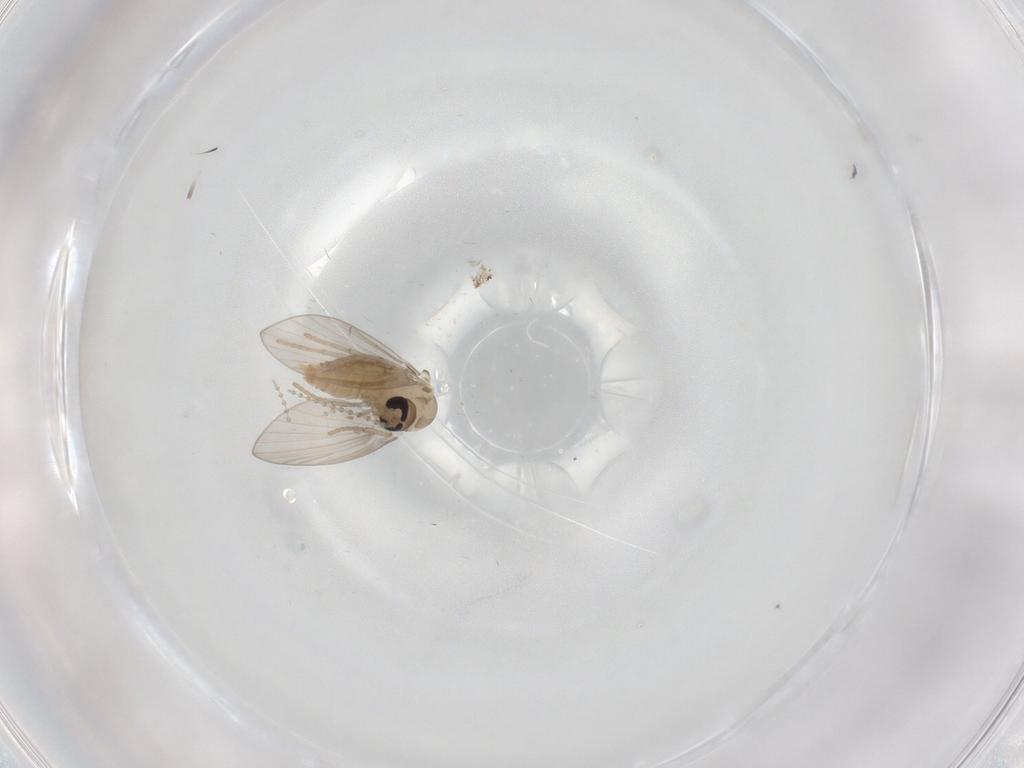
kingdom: Animalia
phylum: Arthropoda
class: Insecta
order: Diptera
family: Psychodidae
